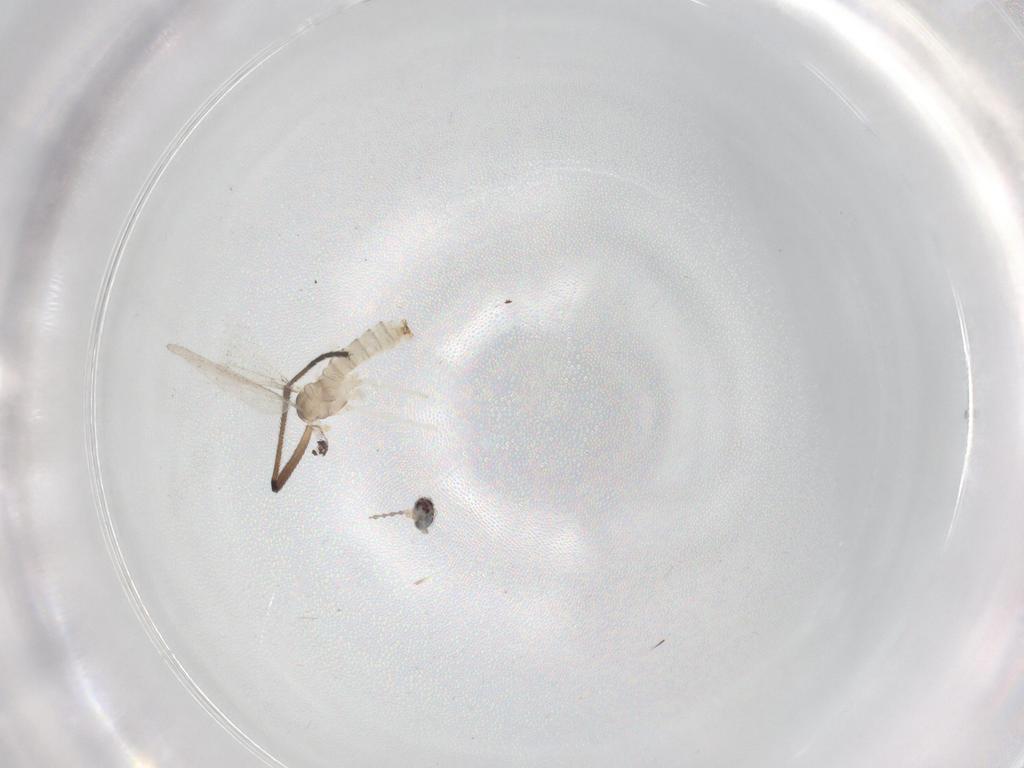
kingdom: Animalia
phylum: Arthropoda
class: Insecta
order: Diptera
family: Cecidomyiidae
